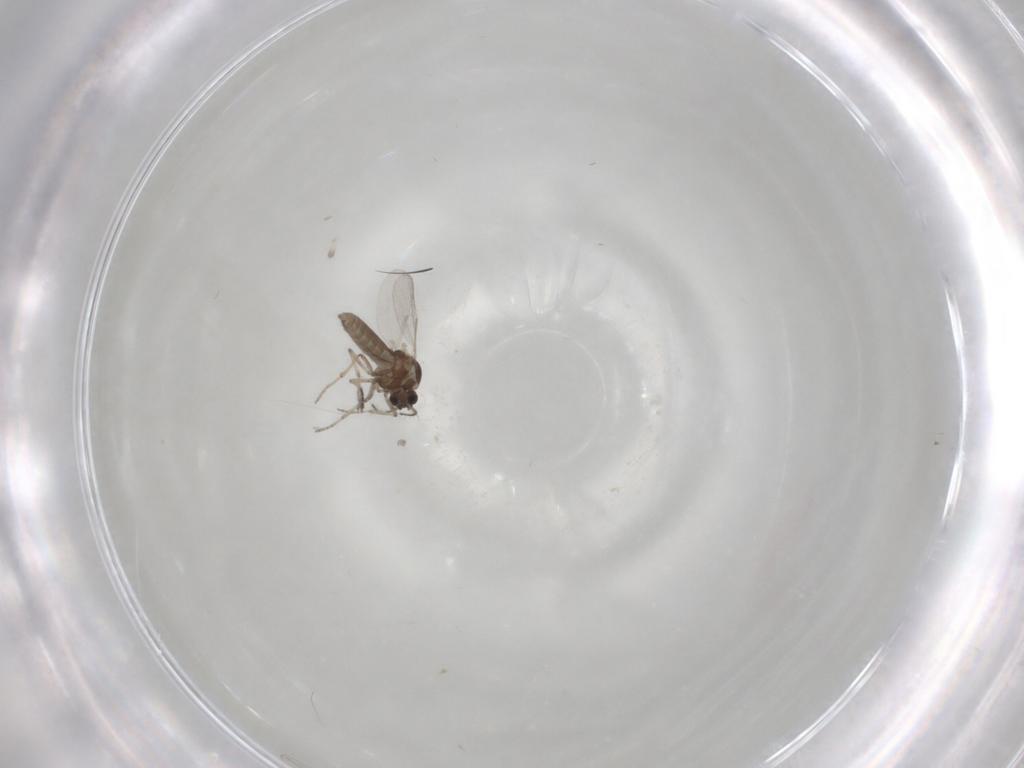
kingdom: Animalia
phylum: Arthropoda
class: Insecta
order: Diptera
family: Ceratopogonidae
